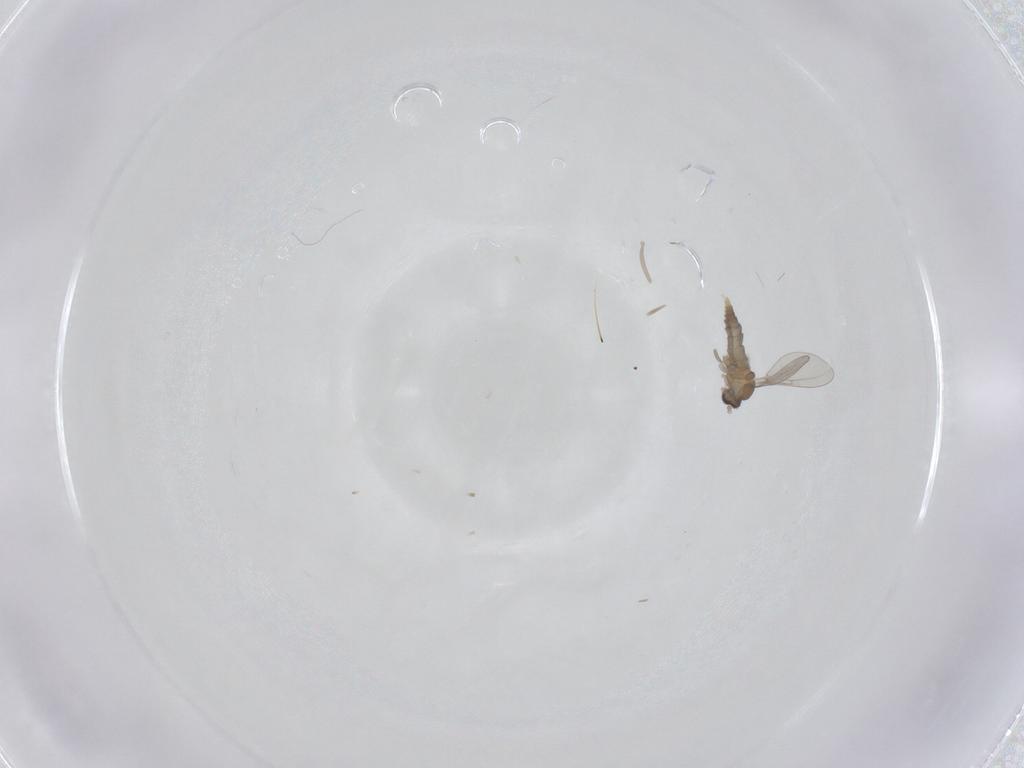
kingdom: Animalia
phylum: Arthropoda
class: Insecta
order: Diptera
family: Cecidomyiidae
